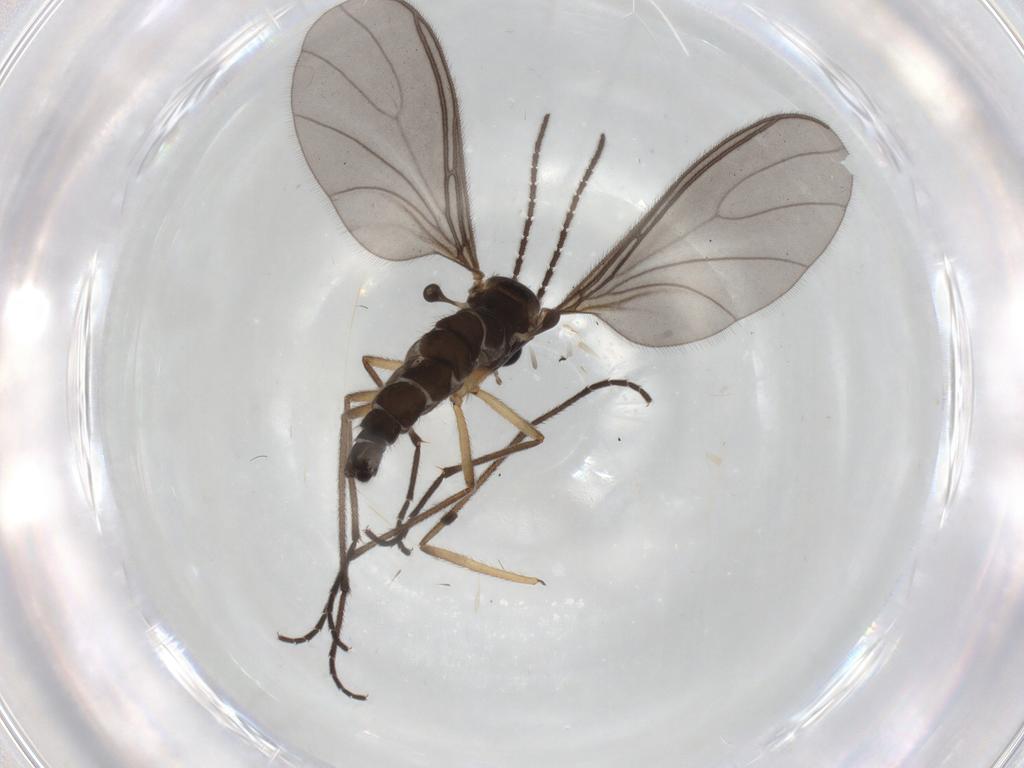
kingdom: Animalia
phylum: Arthropoda
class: Insecta
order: Diptera
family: Sciaridae
